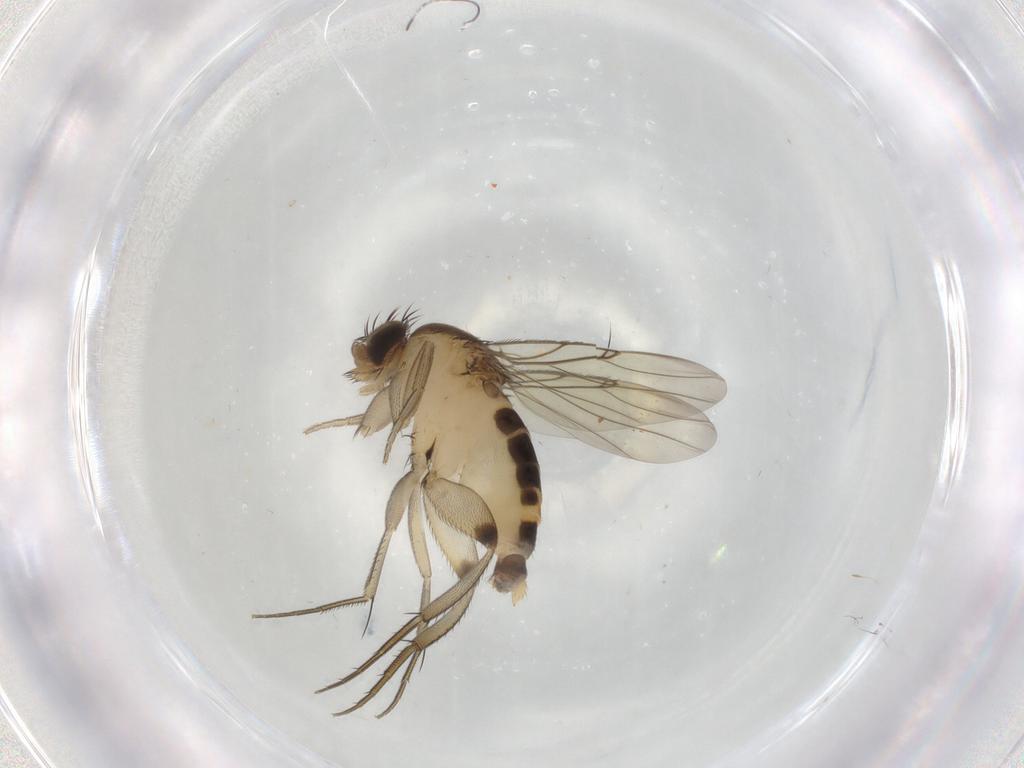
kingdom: Animalia
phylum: Arthropoda
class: Insecta
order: Diptera
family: Phoridae
